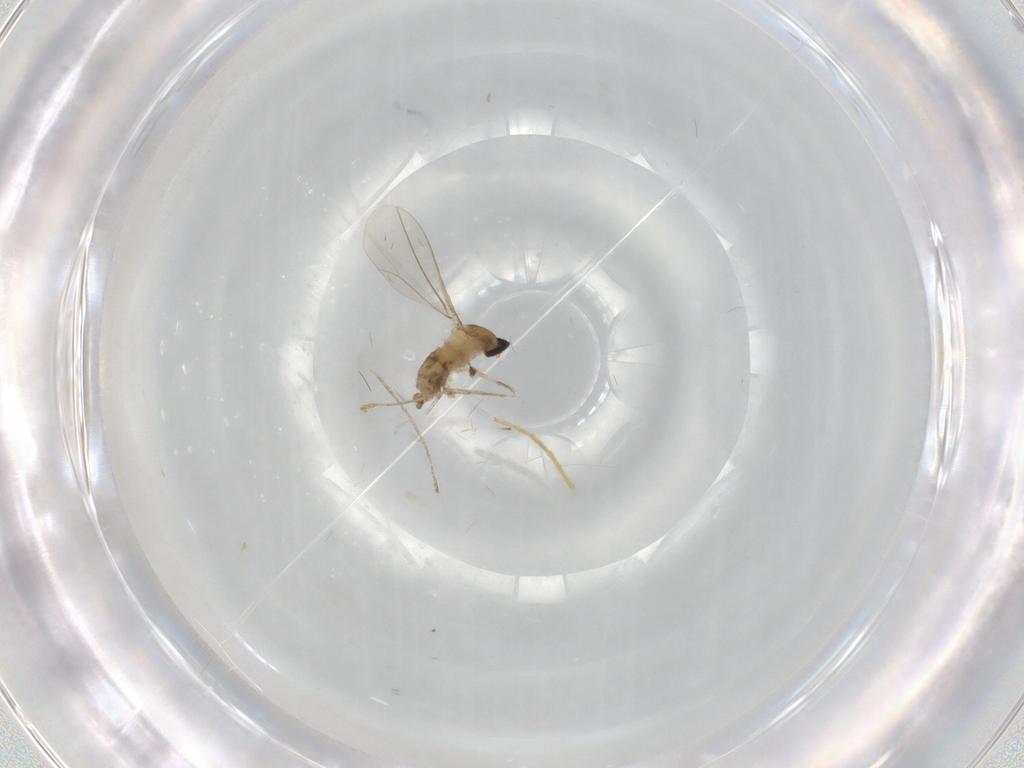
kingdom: Animalia
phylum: Arthropoda
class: Insecta
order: Diptera
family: Cecidomyiidae
